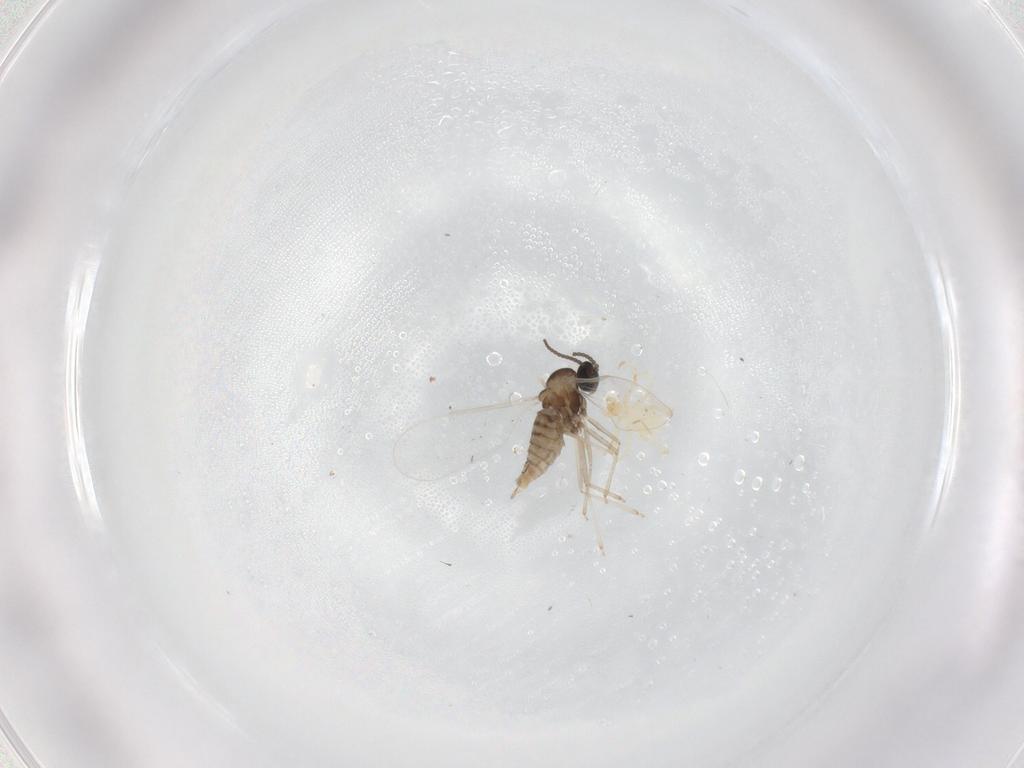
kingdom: Animalia
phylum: Arthropoda
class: Insecta
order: Diptera
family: Cecidomyiidae
